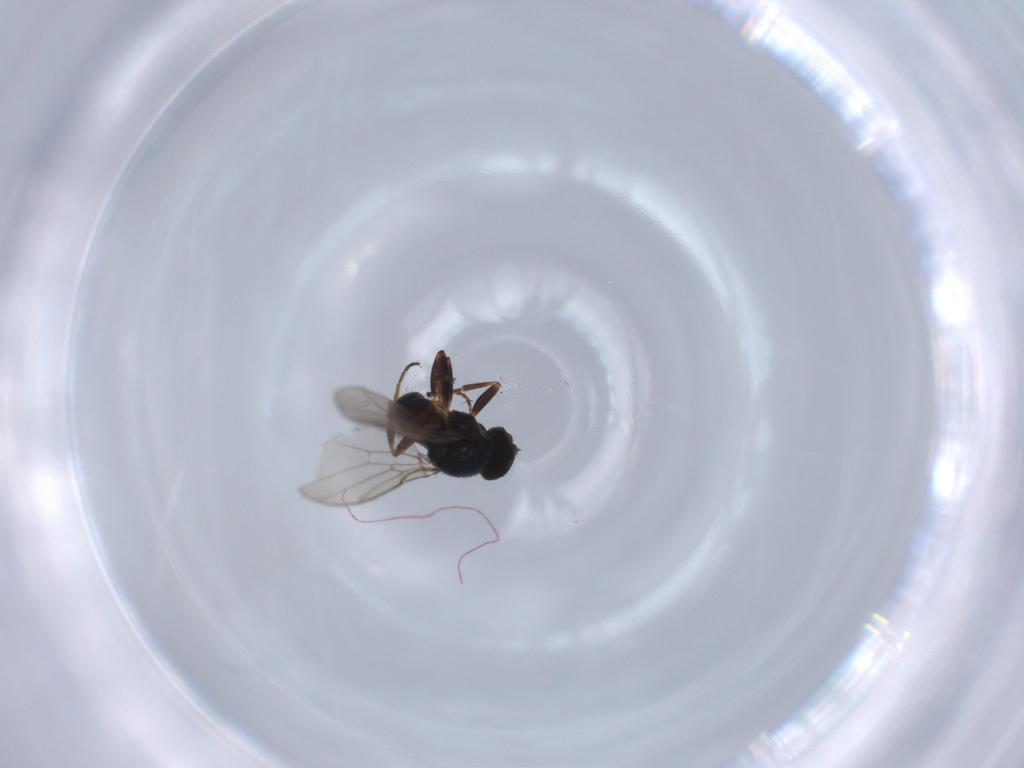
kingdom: Animalia
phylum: Arthropoda
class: Insecta
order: Diptera
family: Chloropidae
